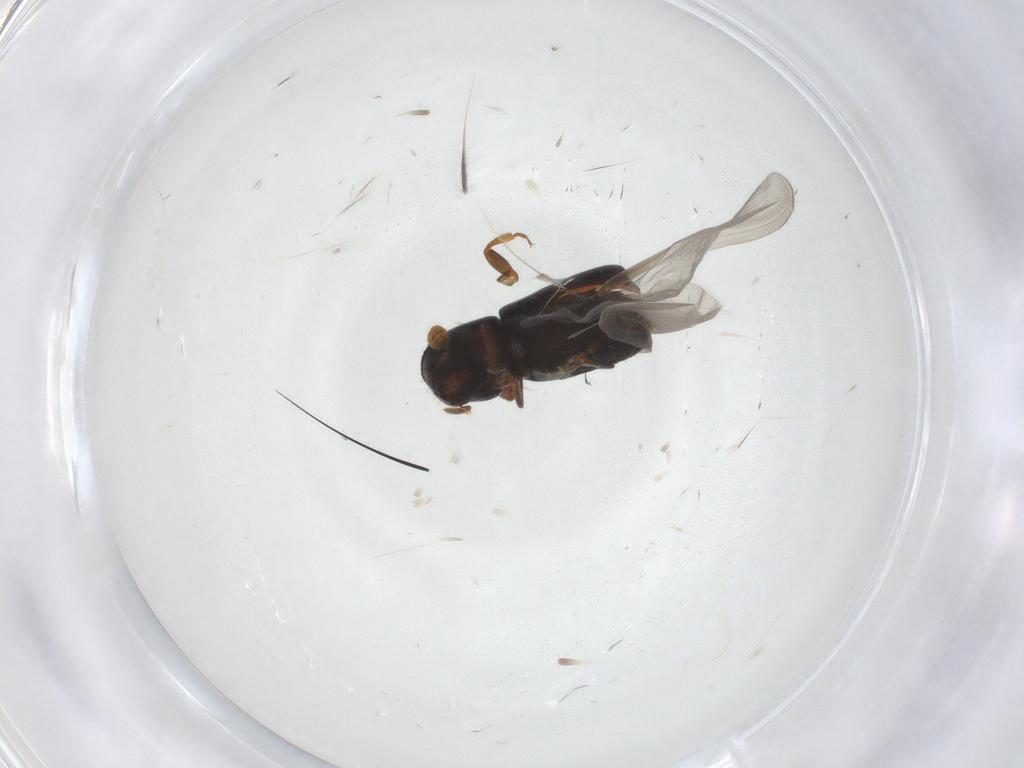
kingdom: Animalia
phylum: Arthropoda
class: Insecta
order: Coleoptera
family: Curculionidae
